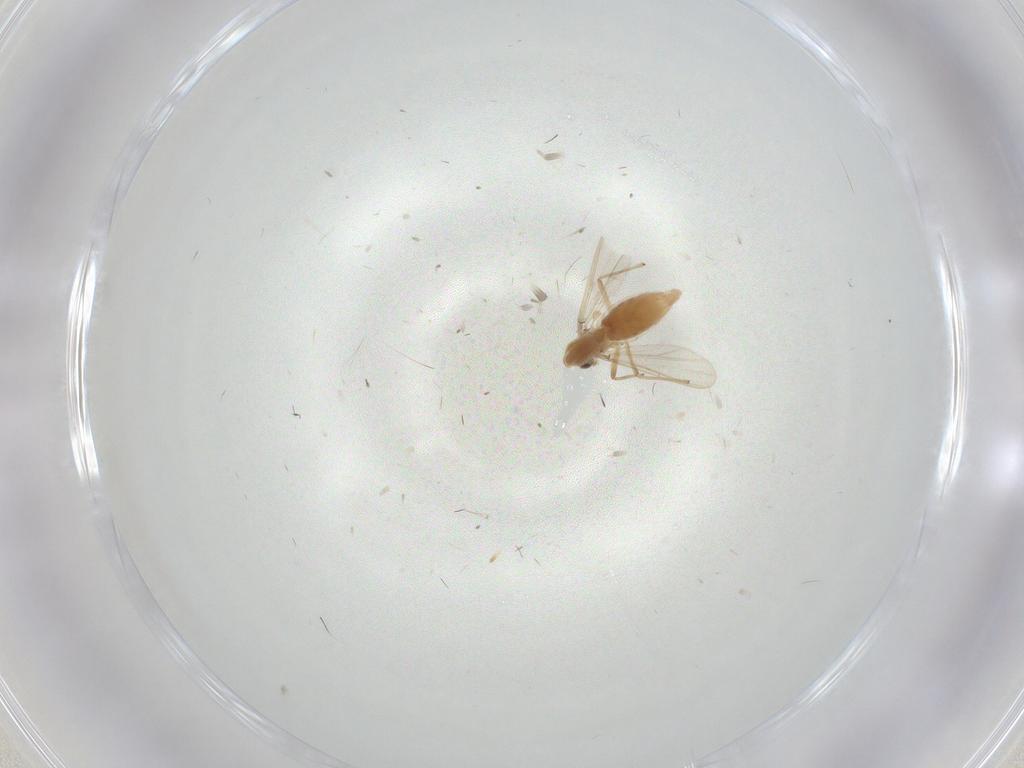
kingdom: Animalia
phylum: Arthropoda
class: Insecta
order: Diptera
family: Chironomidae
